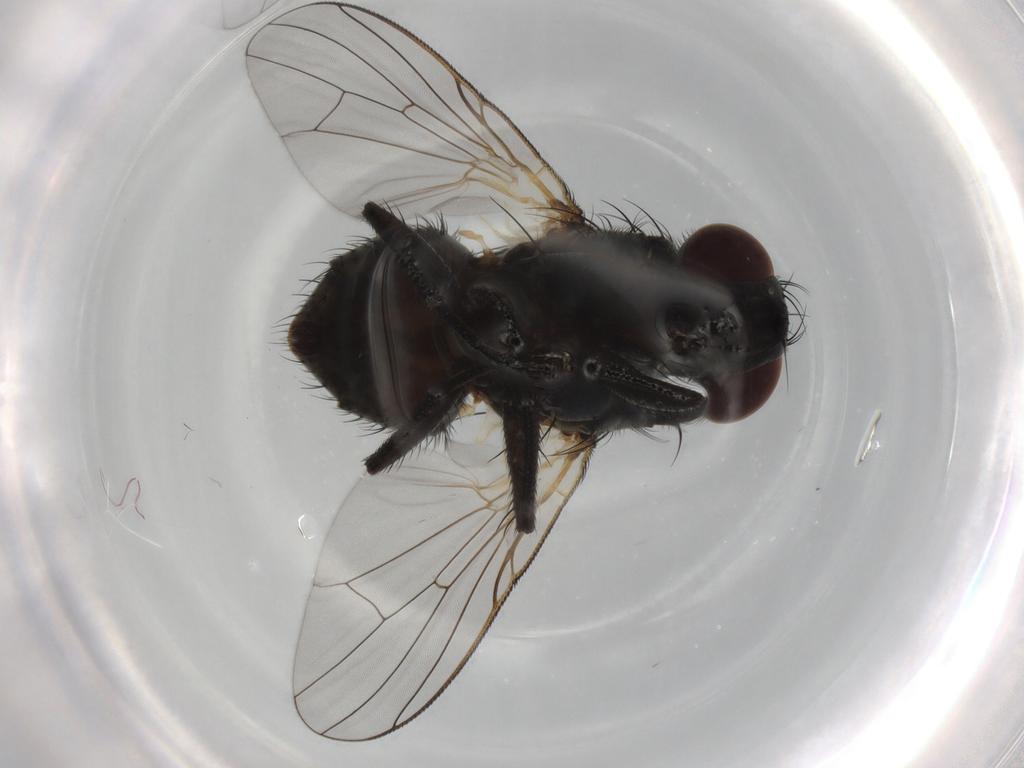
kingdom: Animalia
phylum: Arthropoda
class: Insecta
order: Diptera
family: Muscidae
